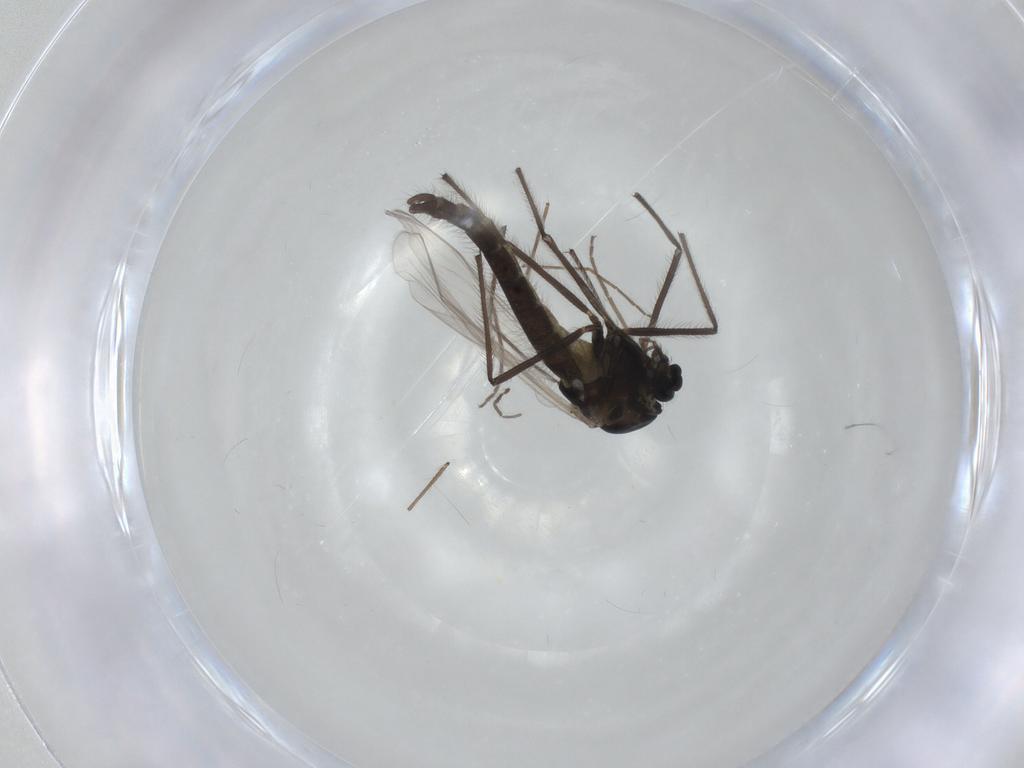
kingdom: Animalia
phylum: Arthropoda
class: Insecta
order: Diptera
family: Chironomidae
